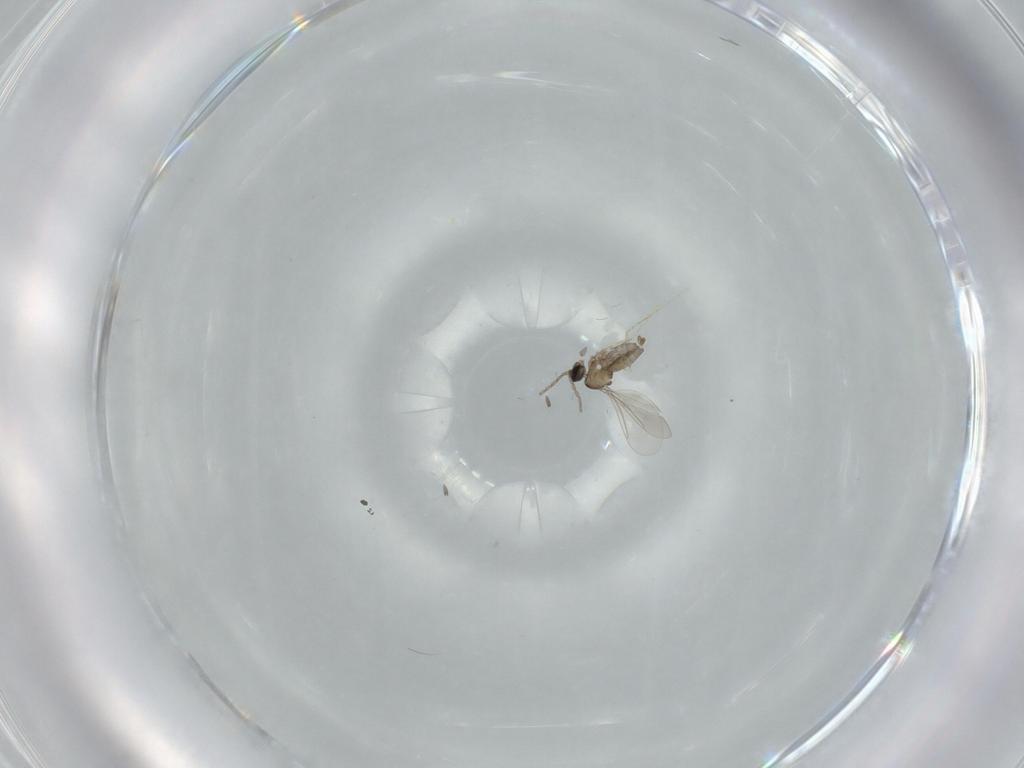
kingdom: Animalia
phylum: Arthropoda
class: Insecta
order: Diptera
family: Cecidomyiidae
